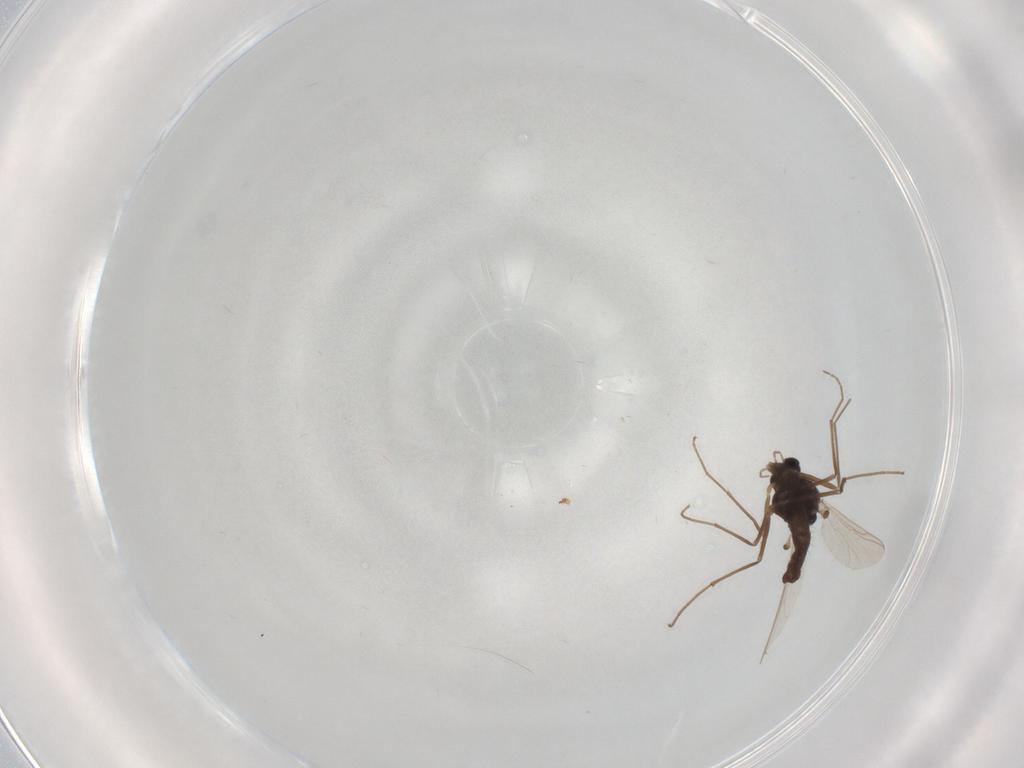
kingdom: Animalia
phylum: Arthropoda
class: Insecta
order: Diptera
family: Chironomidae
